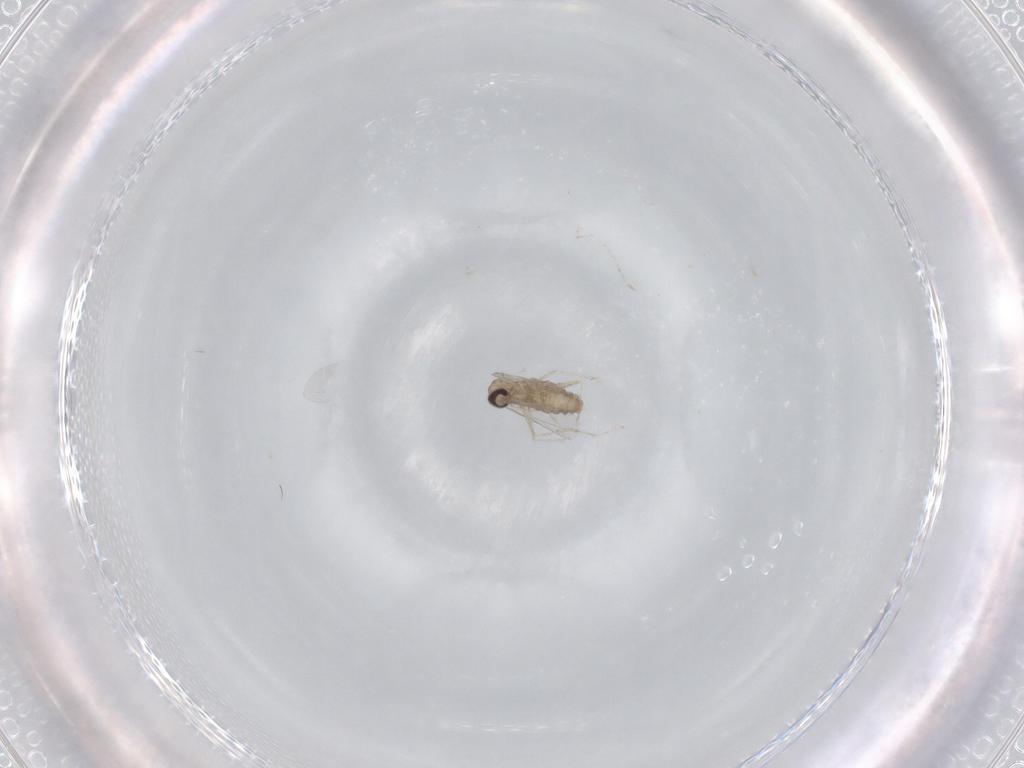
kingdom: Animalia
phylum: Arthropoda
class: Insecta
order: Diptera
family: Cecidomyiidae
